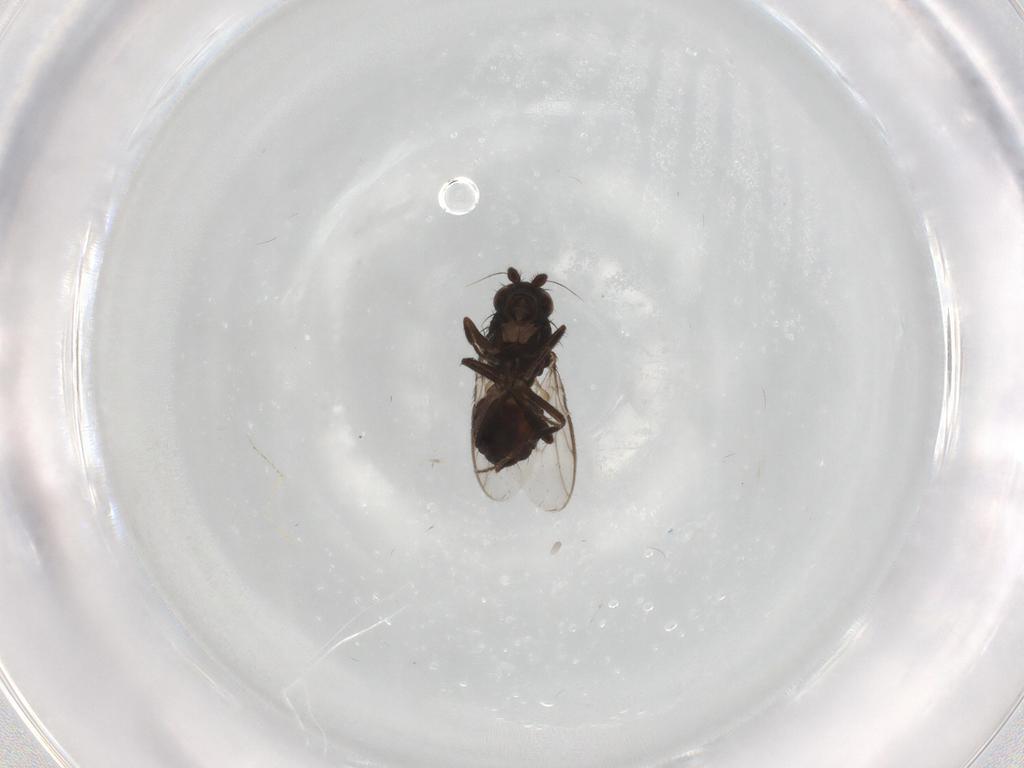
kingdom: Animalia
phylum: Arthropoda
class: Insecta
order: Diptera
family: Sphaeroceridae
